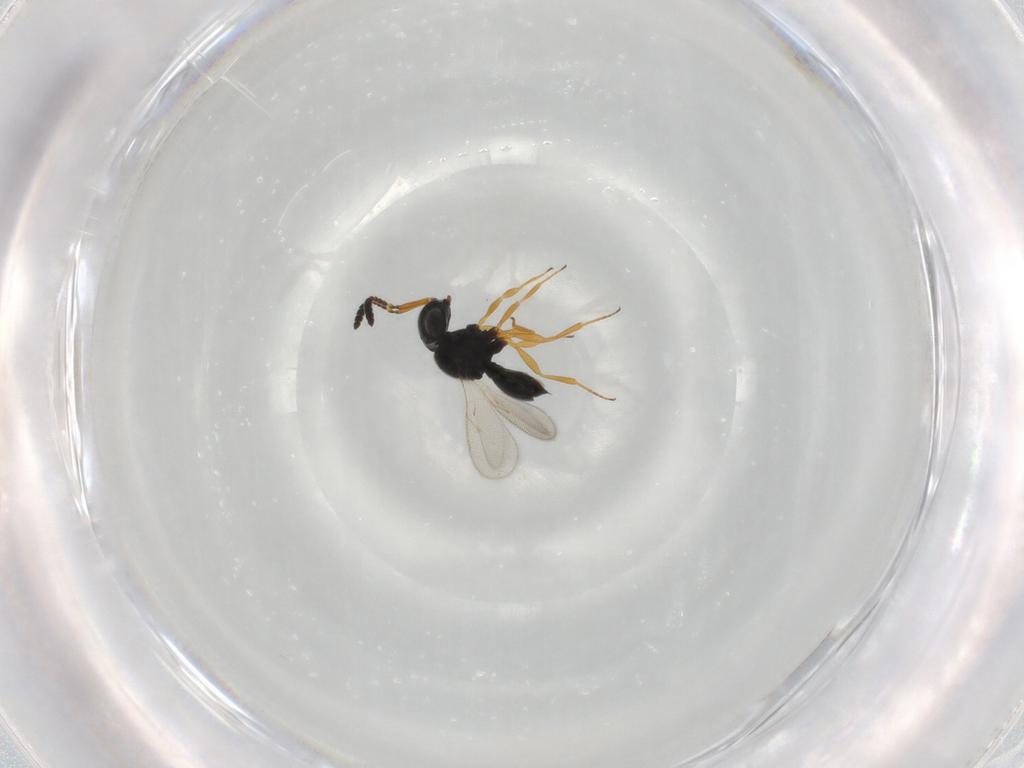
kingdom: Animalia
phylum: Arthropoda
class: Insecta
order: Hymenoptera
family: Scelionidae
